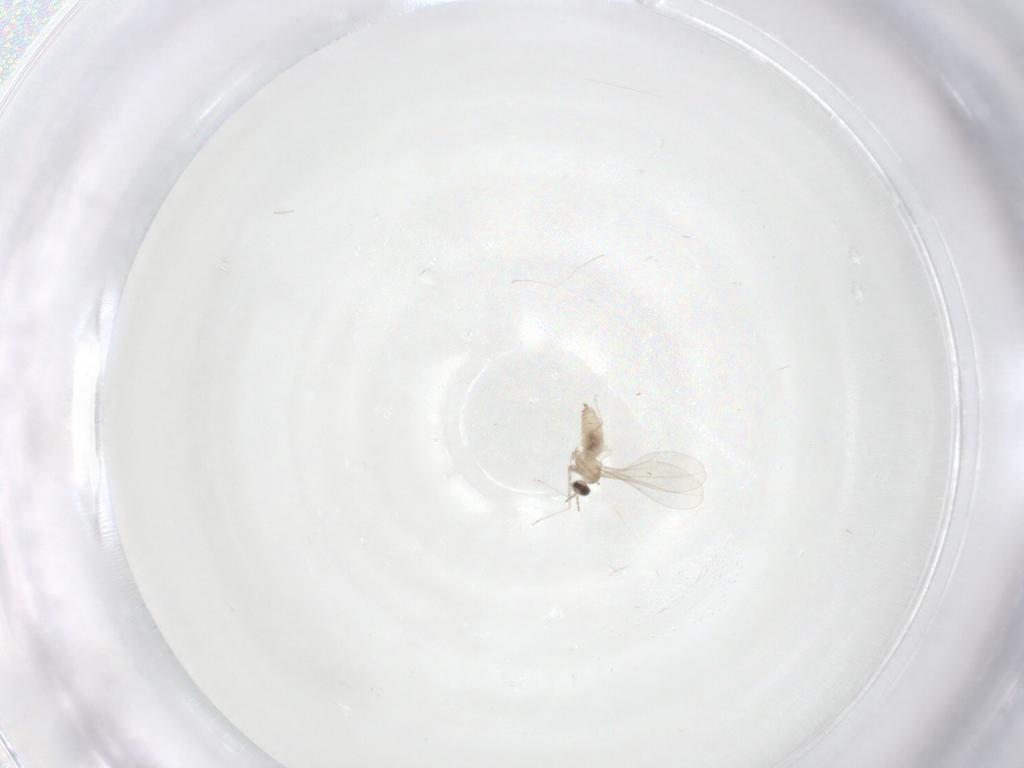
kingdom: Animalia
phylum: Arthropoda
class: Insecta
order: Diptera
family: Cecidomyiidae
